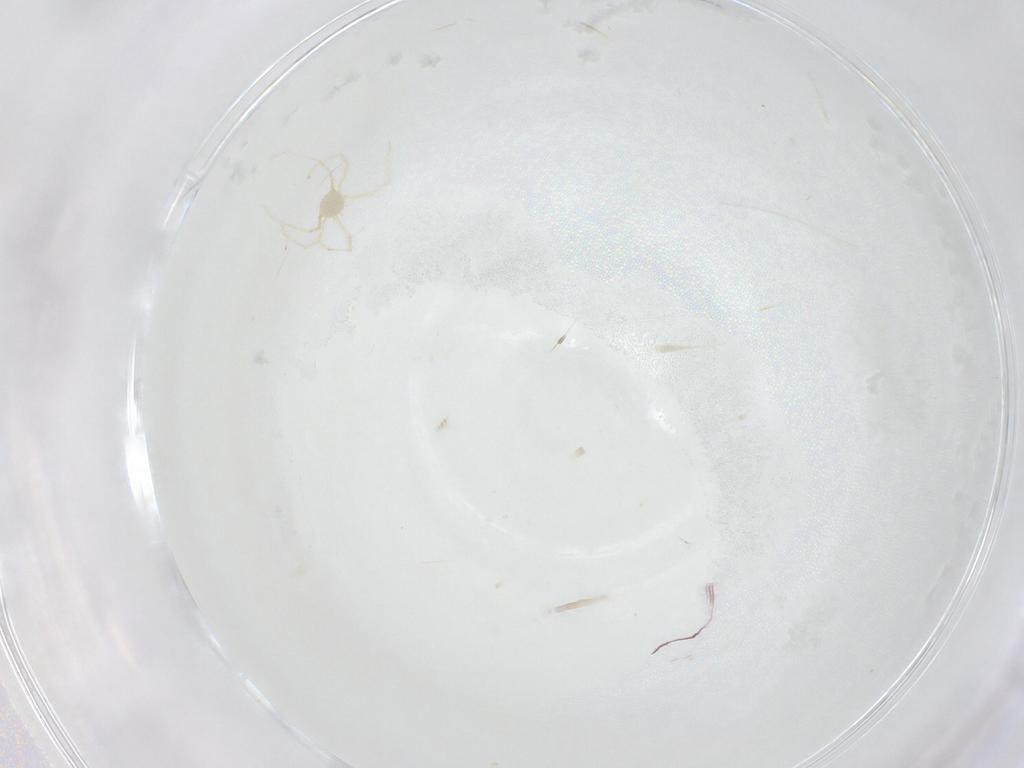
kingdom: Animalia
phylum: Arthropoda
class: Arachnida
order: Trombidiformes
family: Erythraeidae
